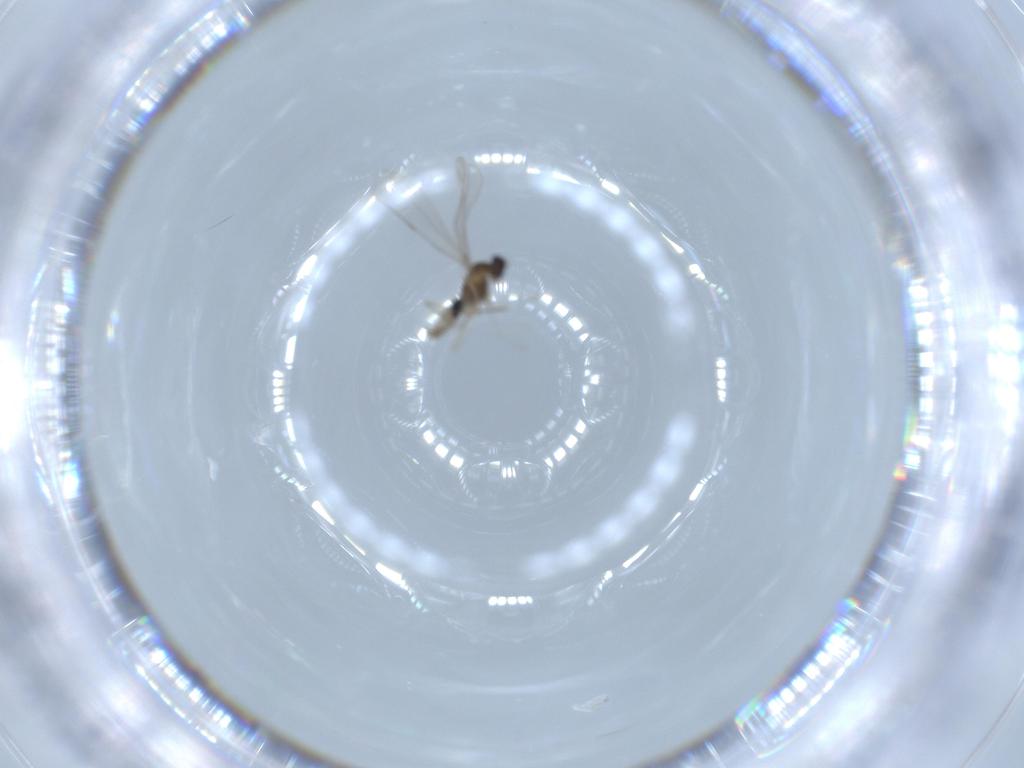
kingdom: Animalia
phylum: Arthropoda
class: Insecta
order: Diptera
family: Cecidomyiidae
